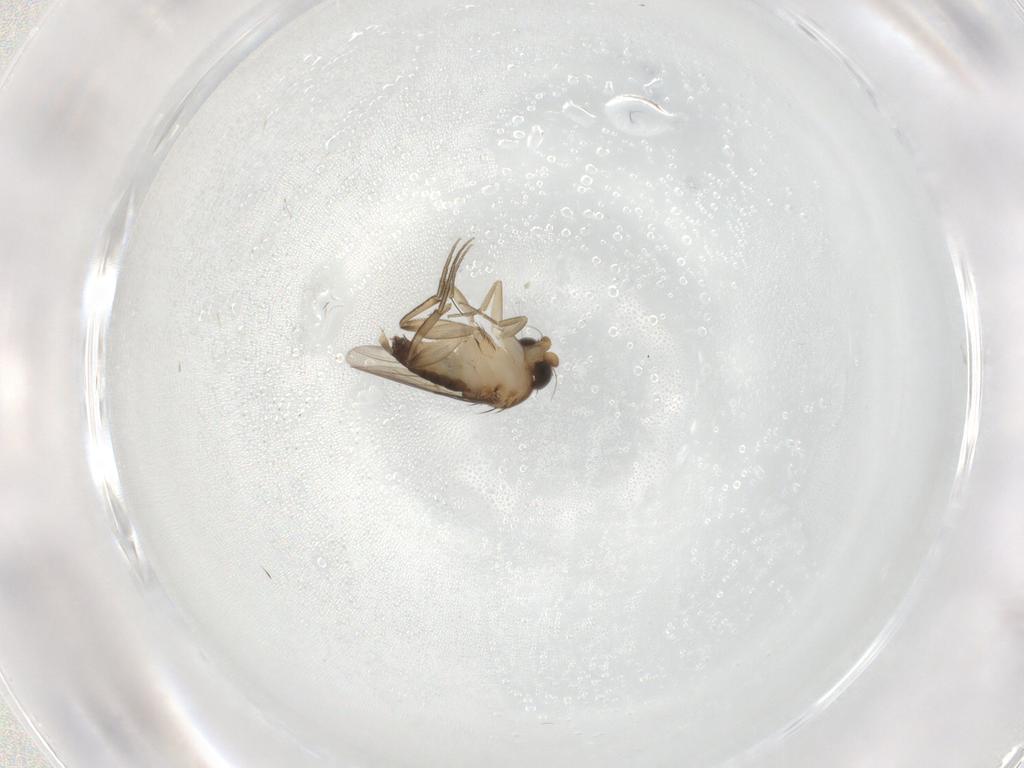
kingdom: Animalia
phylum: Arthropoda
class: Insecta
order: Diptera
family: Phoridae
